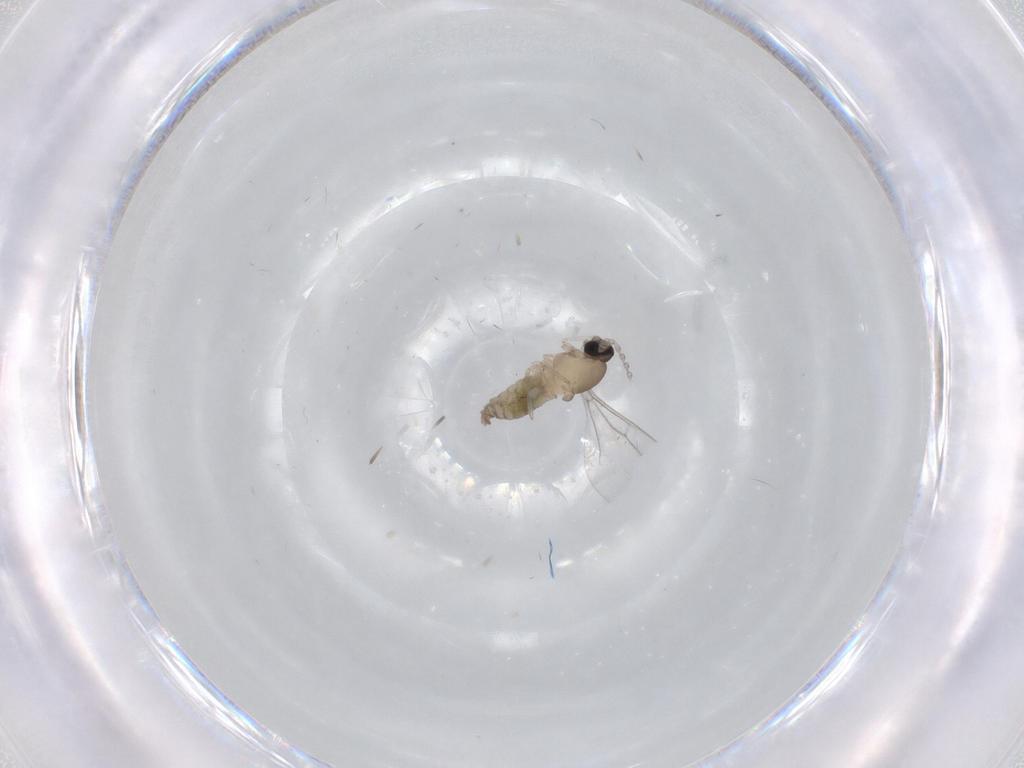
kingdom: Animalia
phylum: Arthropoda
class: Insecta
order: Diptera
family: Cecidomyiidae
